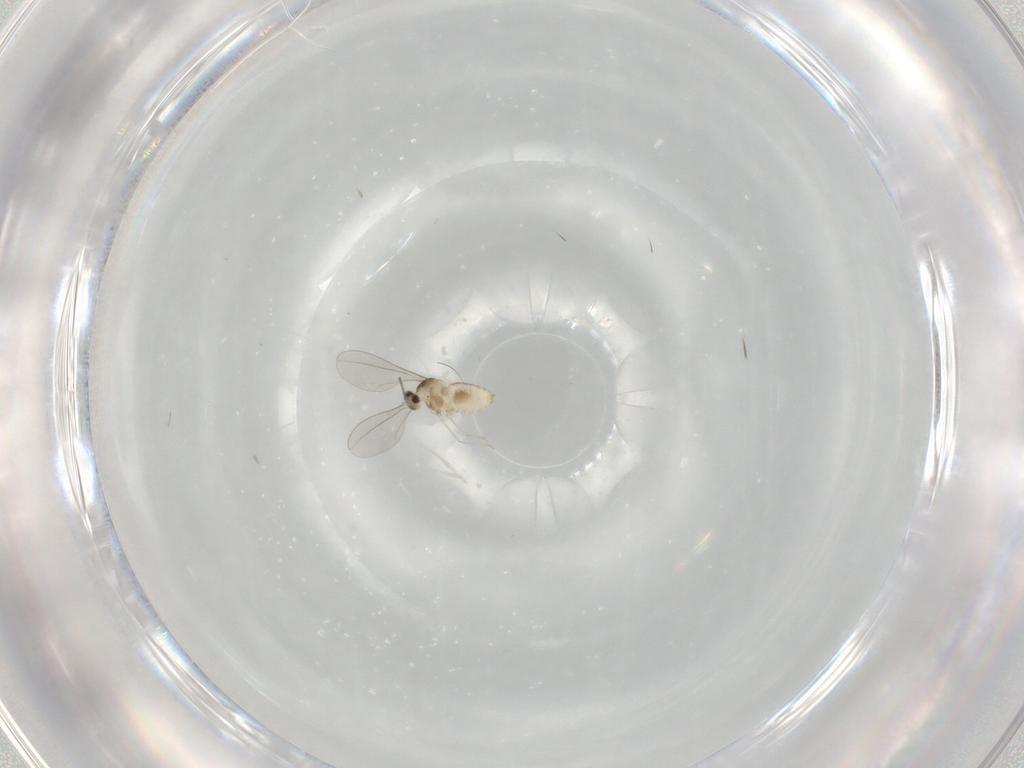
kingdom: Animalia
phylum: Arthropoda
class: Insecta
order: Diptera
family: Cecidomyiidae
